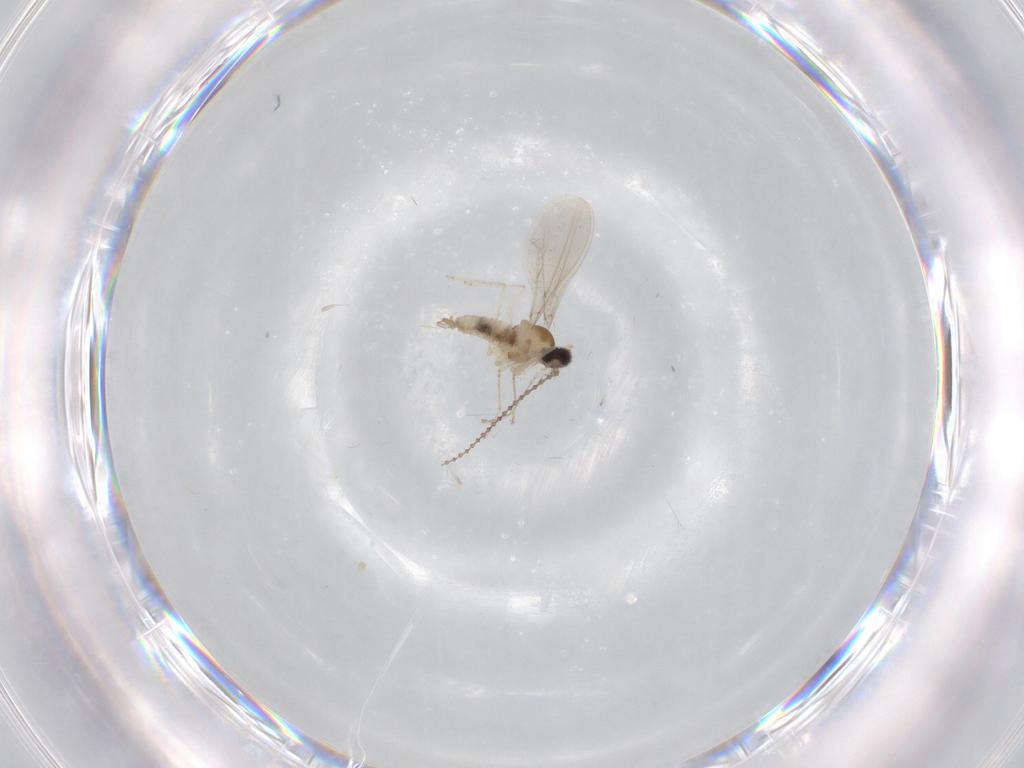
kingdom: Animalia
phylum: Arthropoda
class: Insecta
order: Diptera
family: Cecidomyiidae
